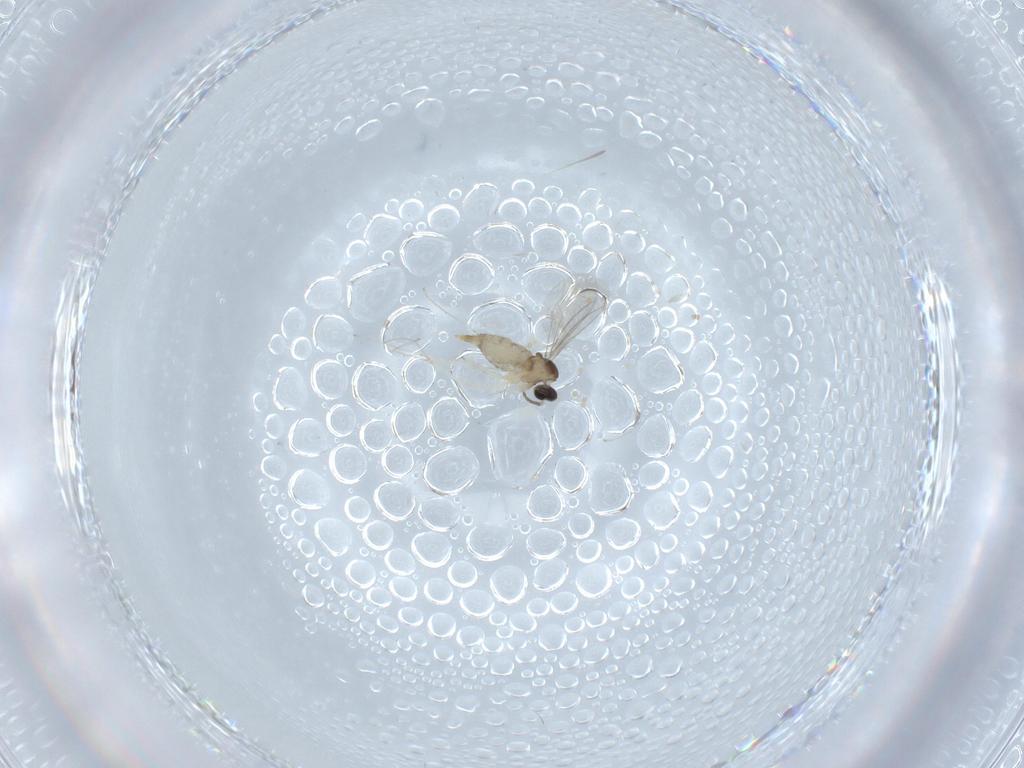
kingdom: Animalia
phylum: Arthropoda
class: Insecta
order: Diptera
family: Cecidomyiidae
